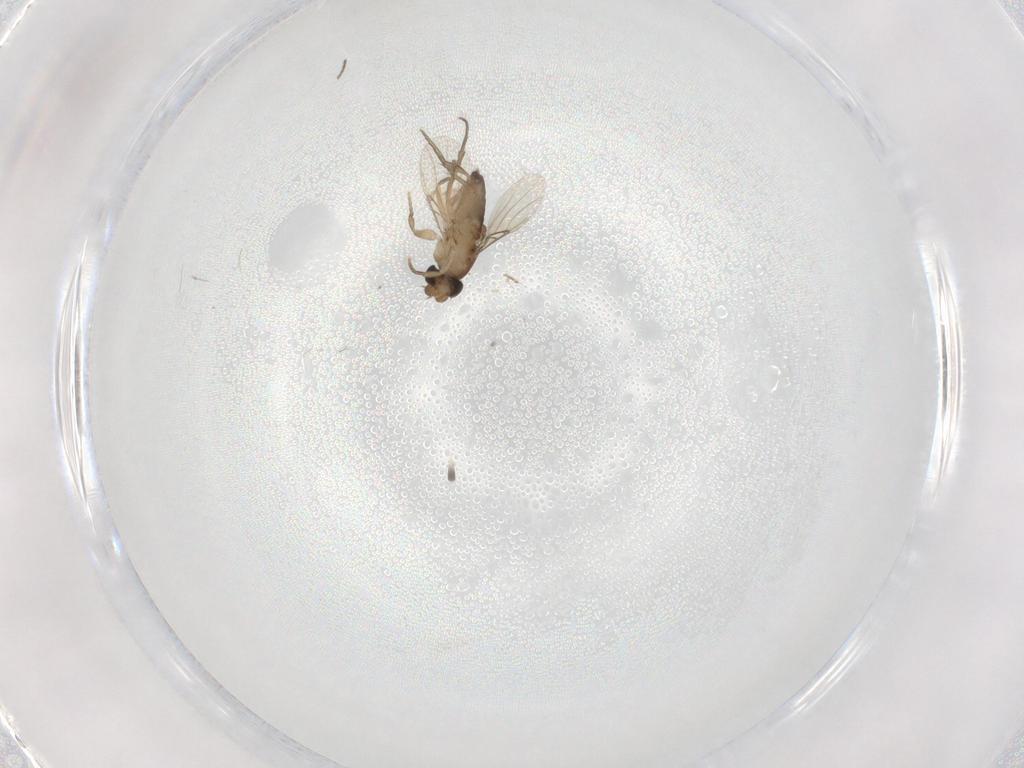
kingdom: Animalia
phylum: Arthropoda
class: Insecta
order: Diptera
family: Phoridae
